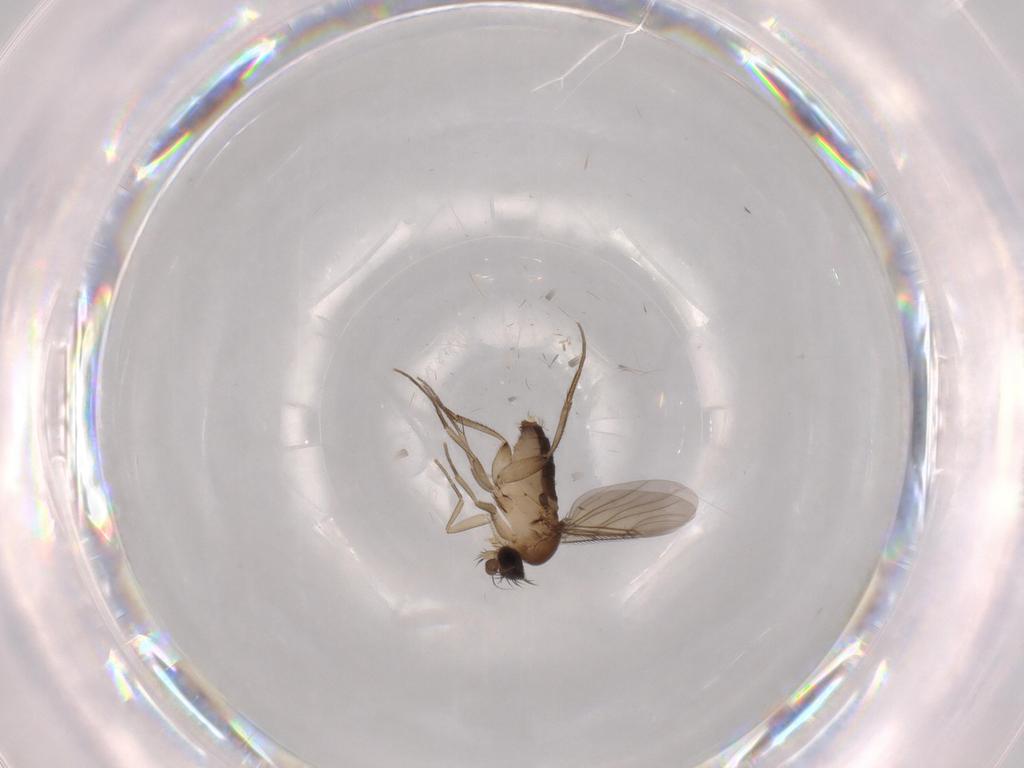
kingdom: Animalia
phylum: Arthropoda
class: Insecta
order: Diptera
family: Phoridae
